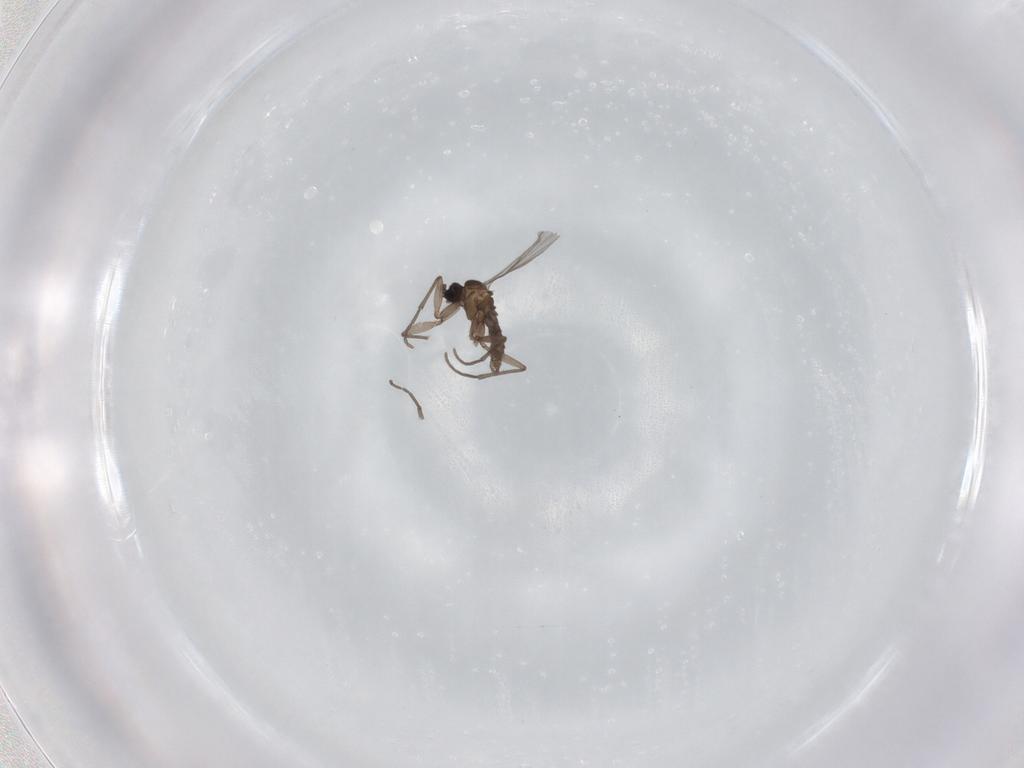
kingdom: Animalia
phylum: Arthropoda
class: Insecta
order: Diptera
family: Sciaridae
